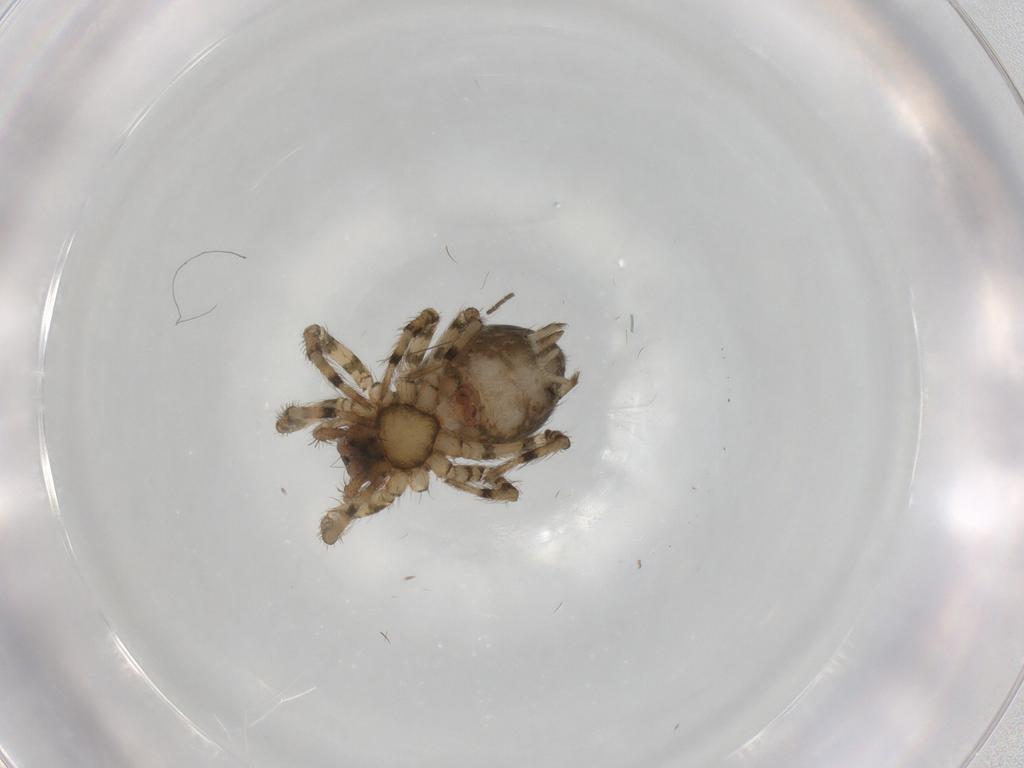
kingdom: Animalia
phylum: Arthropoda
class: Arachnida
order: Araneae
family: Hahniidae
